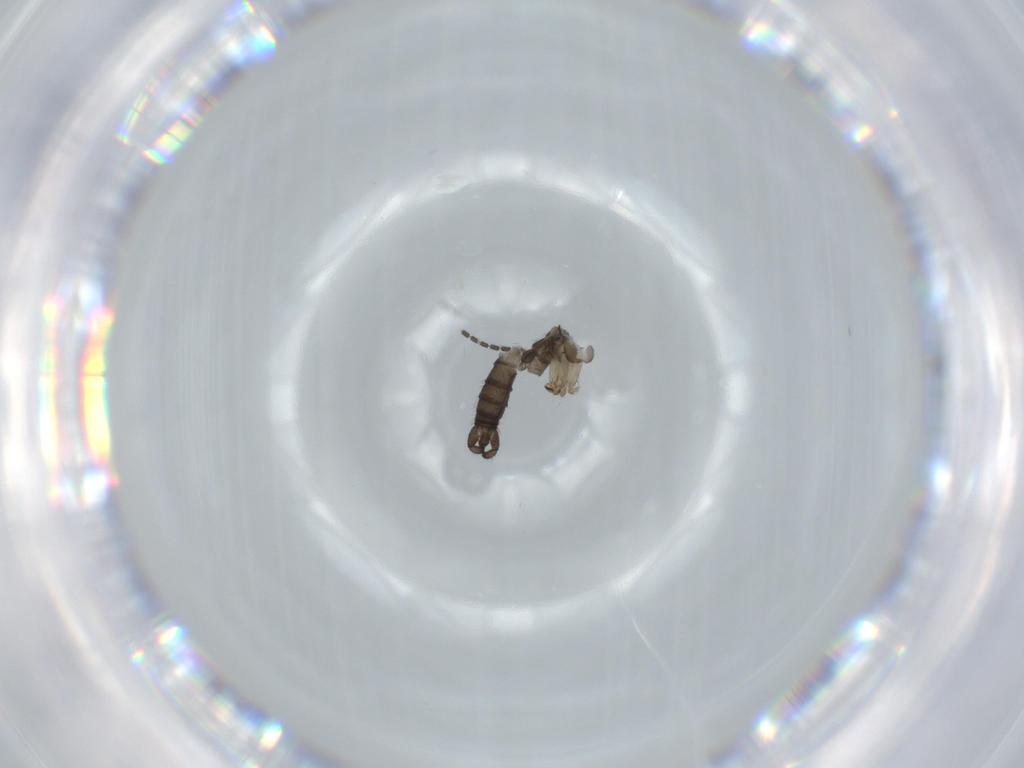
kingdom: Animalia
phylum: Arthropoda
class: Insecta
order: Diptera
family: Sciaridae
